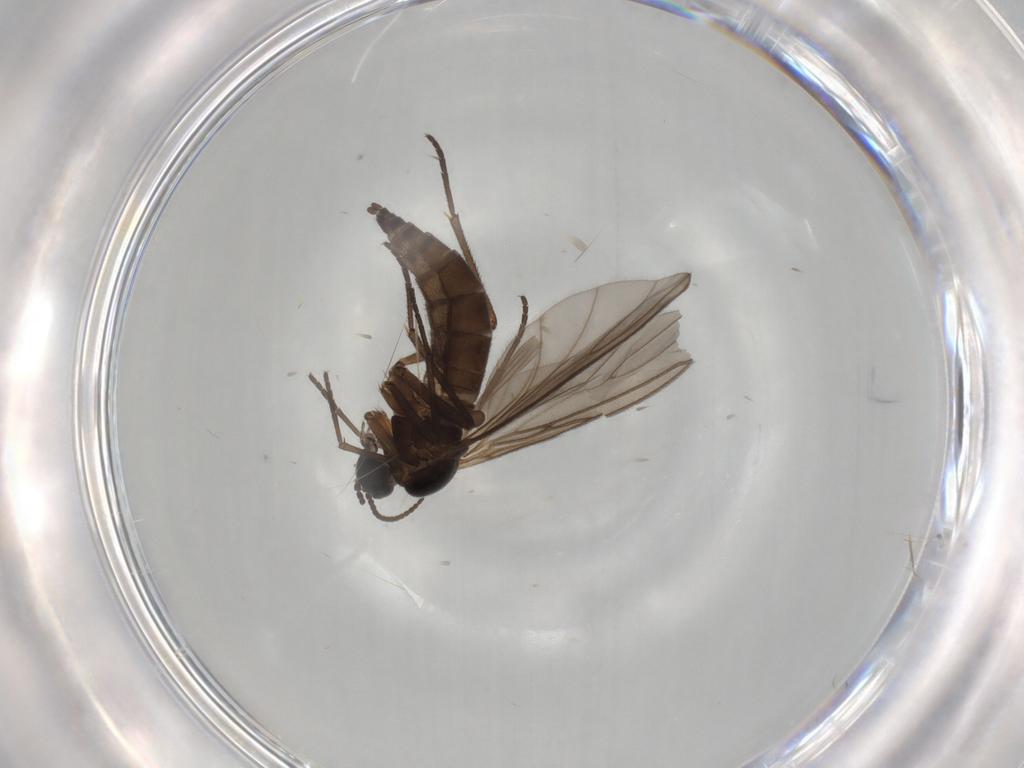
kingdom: Animalia
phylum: Arthropoda
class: Insecta
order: Diptera
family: Sciaridae
